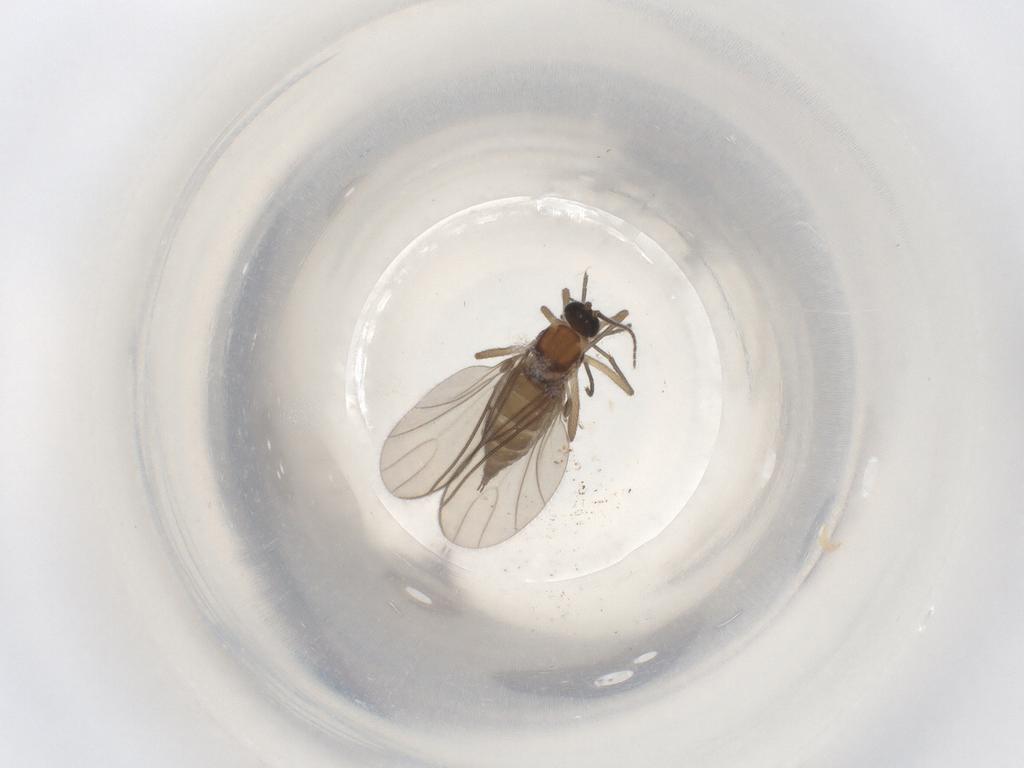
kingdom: Animalia
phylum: Arthropoda
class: Insecta
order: Diptera
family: Sciaridae
